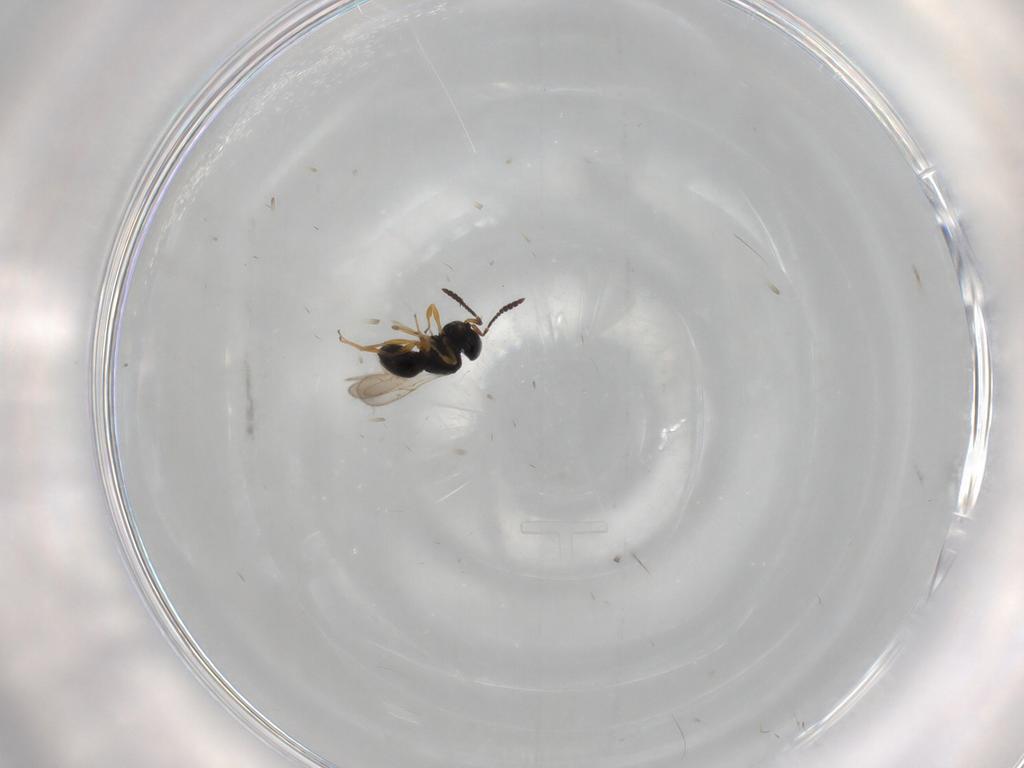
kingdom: Animalia
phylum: Arthropoda
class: Insecta
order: Hymenoptera
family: Scelionidae
